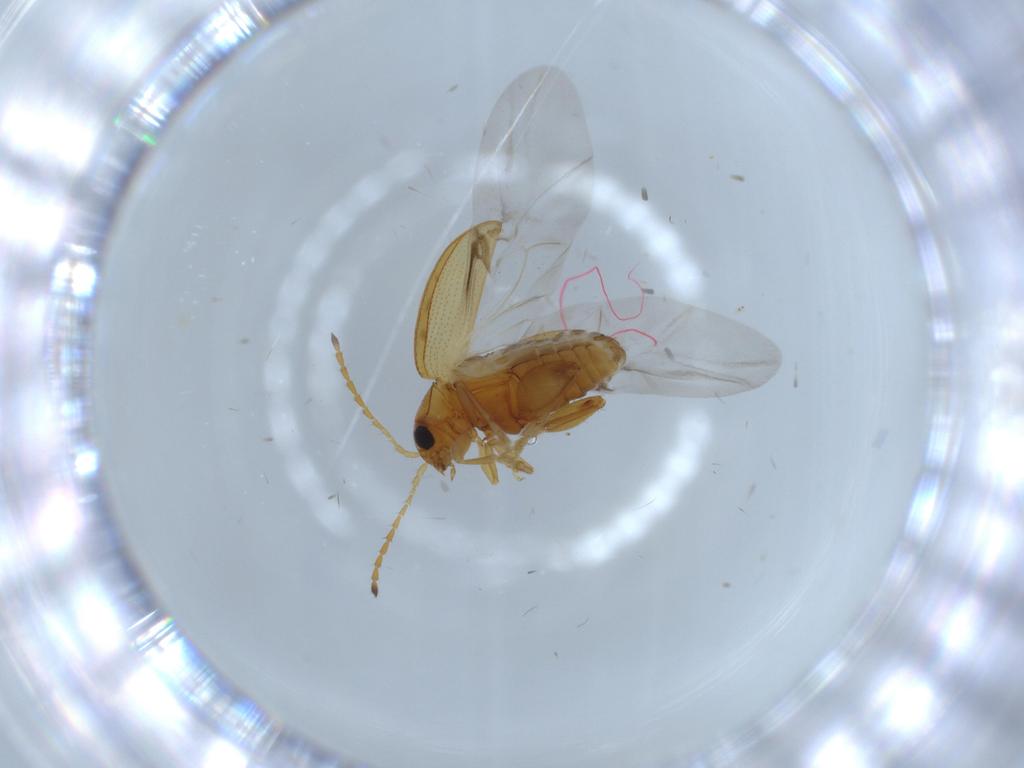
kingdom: Animalia
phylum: Arthropoda
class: Insecta
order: Coleoptera
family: Chrysomelidae
